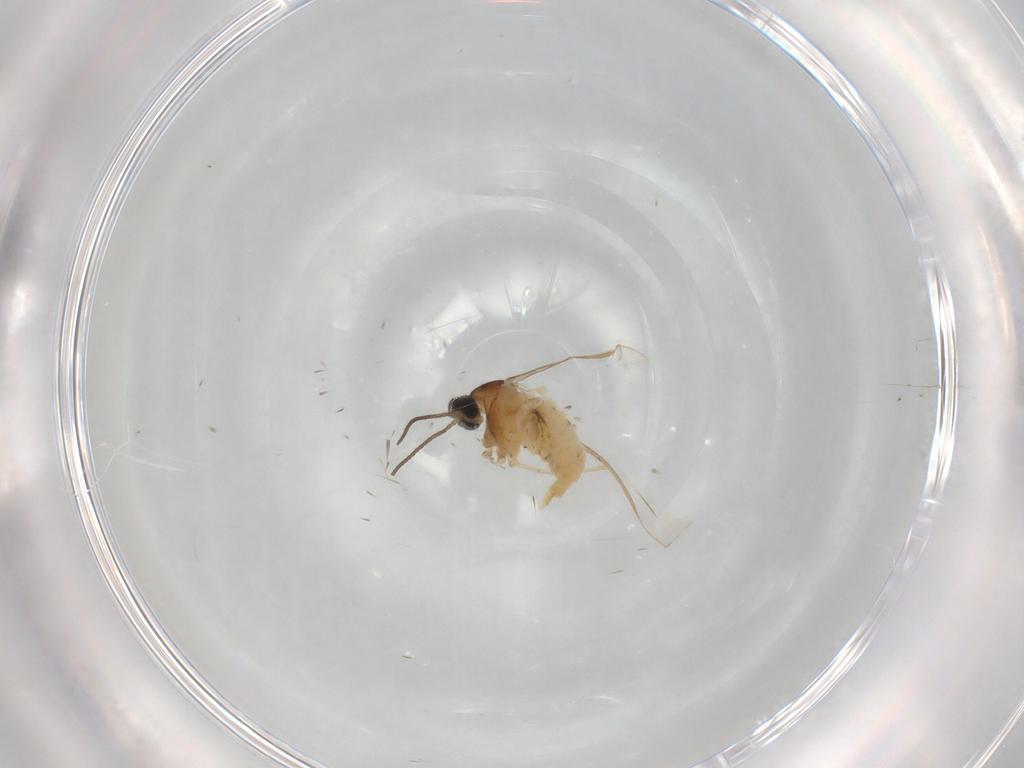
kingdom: Animalia
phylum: Arthropoda
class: Insecta
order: Diptera
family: Cecidomyiidae
